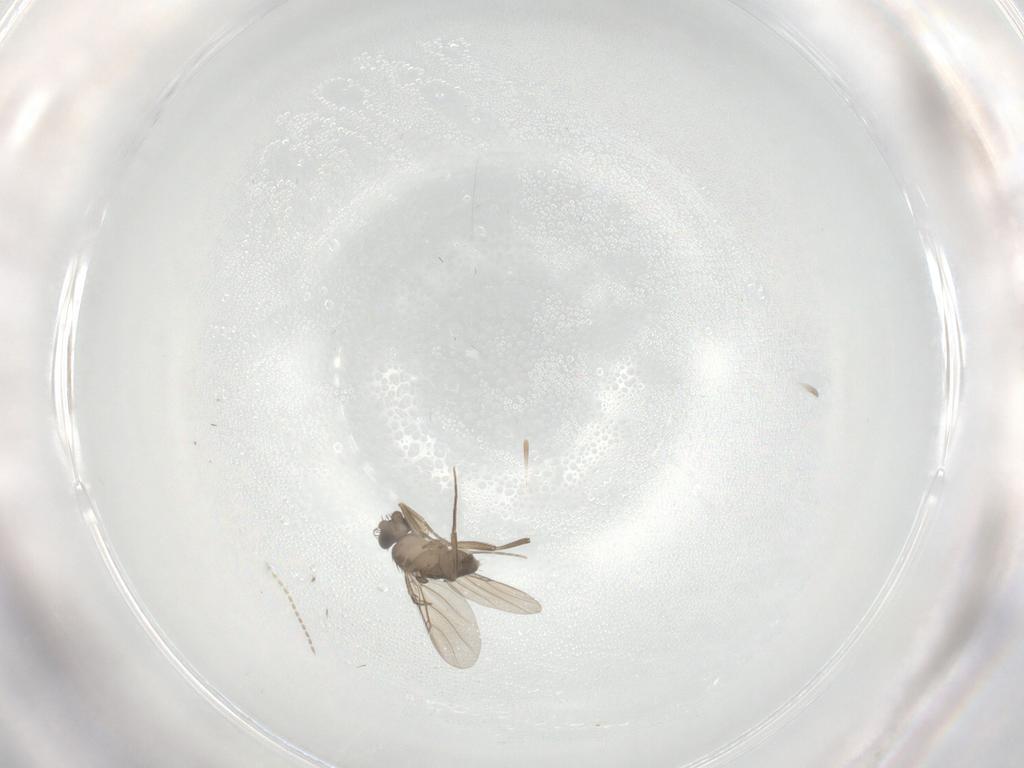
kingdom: Animalia
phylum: Arthropoda
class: Insecta
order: Diptera
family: Phoridae
